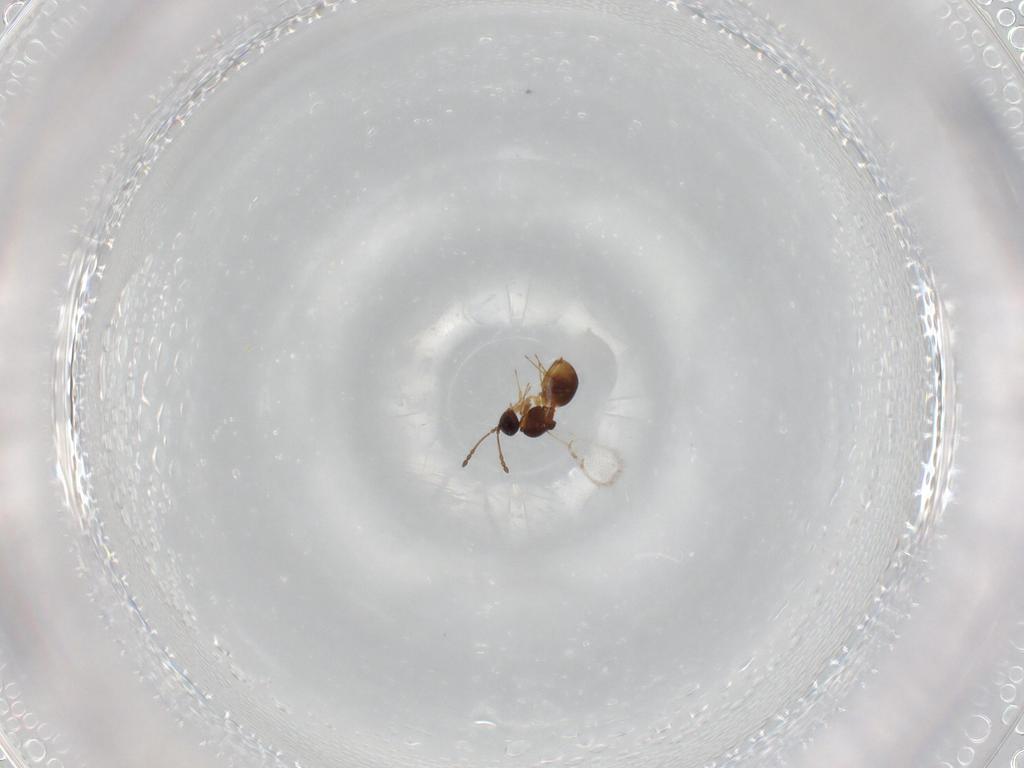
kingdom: Animalia
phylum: Arthropoda
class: Insecta
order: Hymenoptera
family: Figitidae
